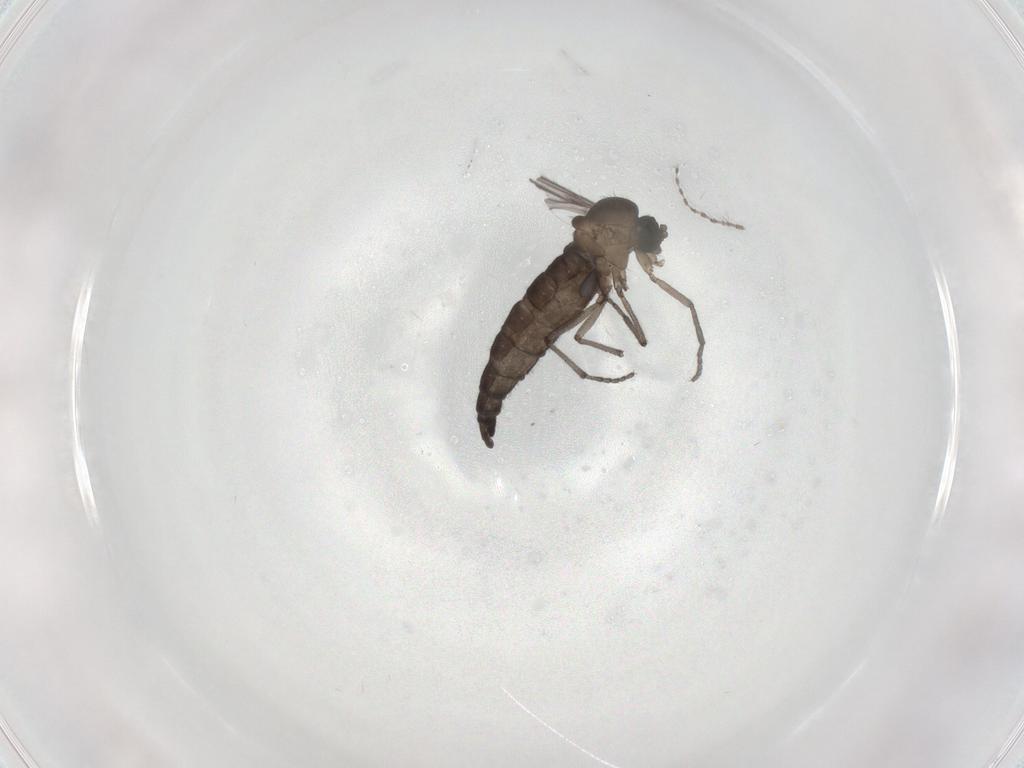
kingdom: Animalia
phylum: Arthropoda
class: Insecta
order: Diptera
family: Sciaridae
